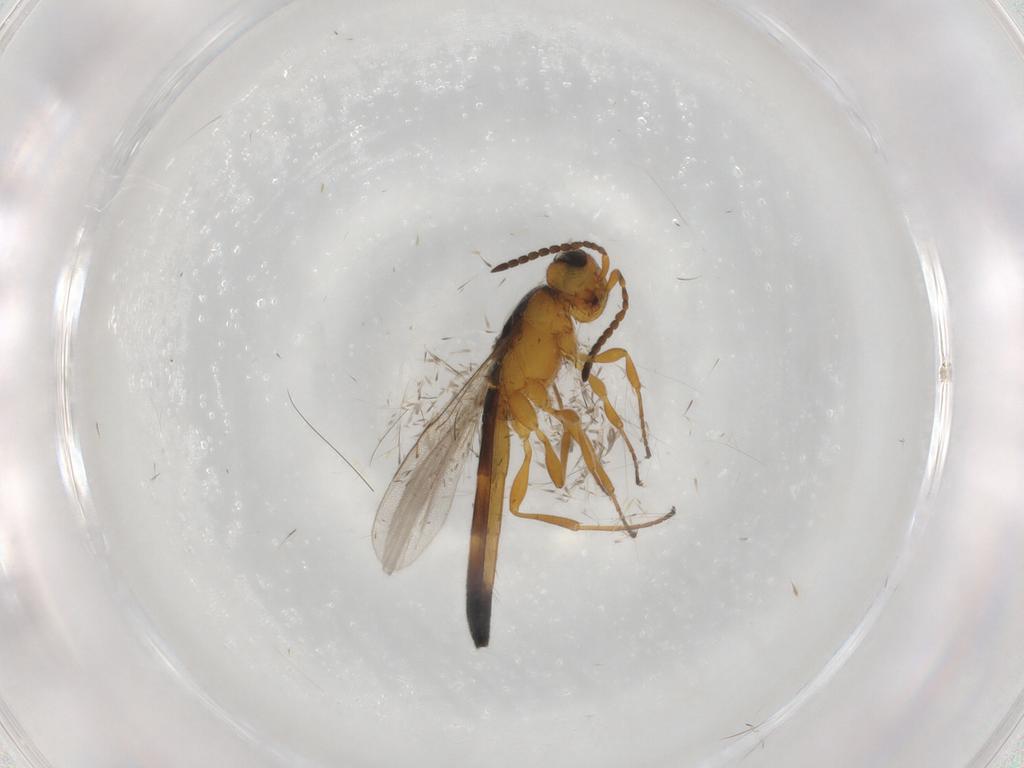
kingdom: Animalia
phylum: Arthropoda
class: Insecta
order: Hymenoptera
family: Scelionidae
